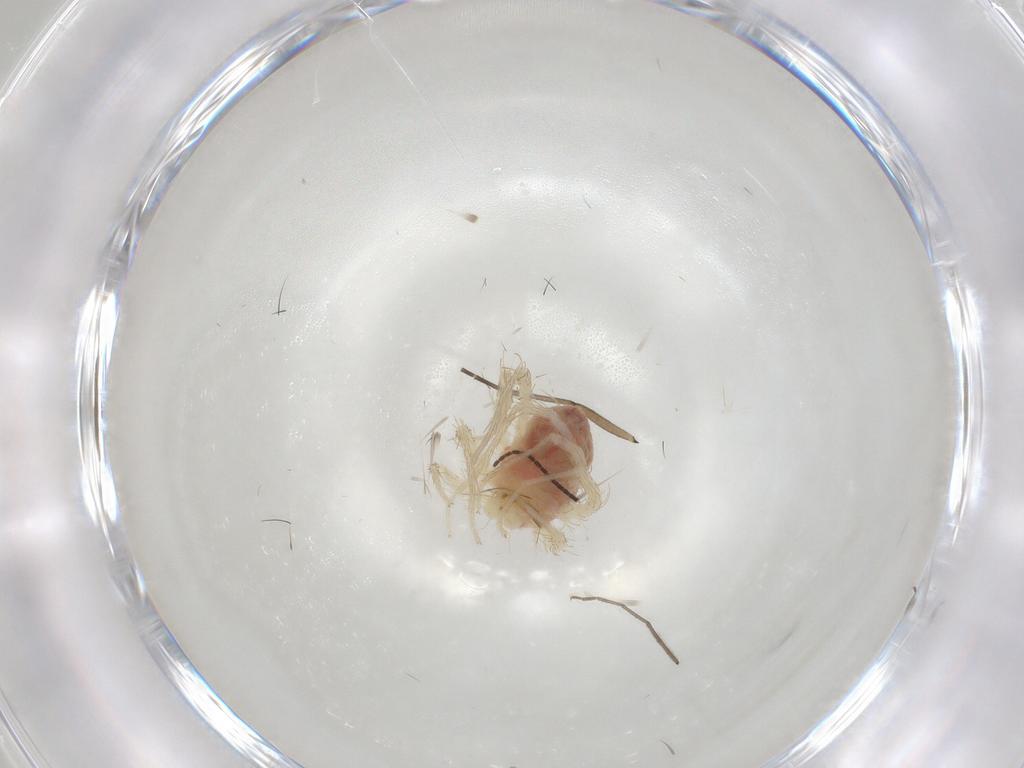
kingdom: Animalia
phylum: Arthropoda
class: Arachnida
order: Trombidiformes
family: Anystidae
